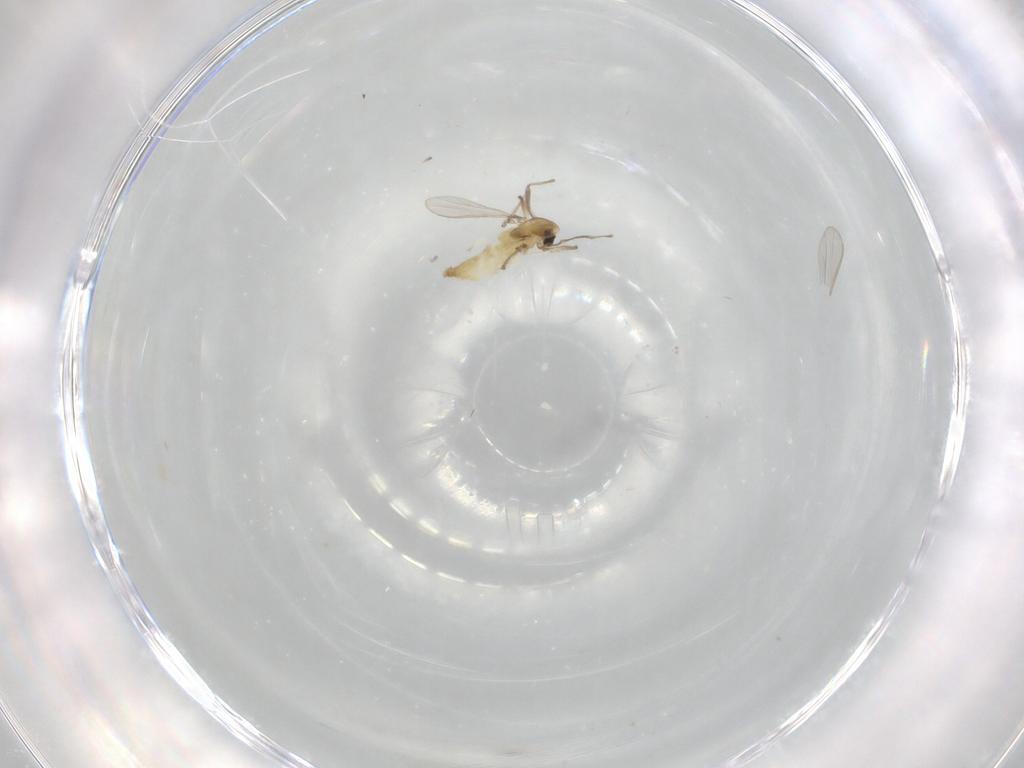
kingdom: Animalia
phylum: Arthropoda
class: Insecta
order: Diptera
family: Chironomidae
